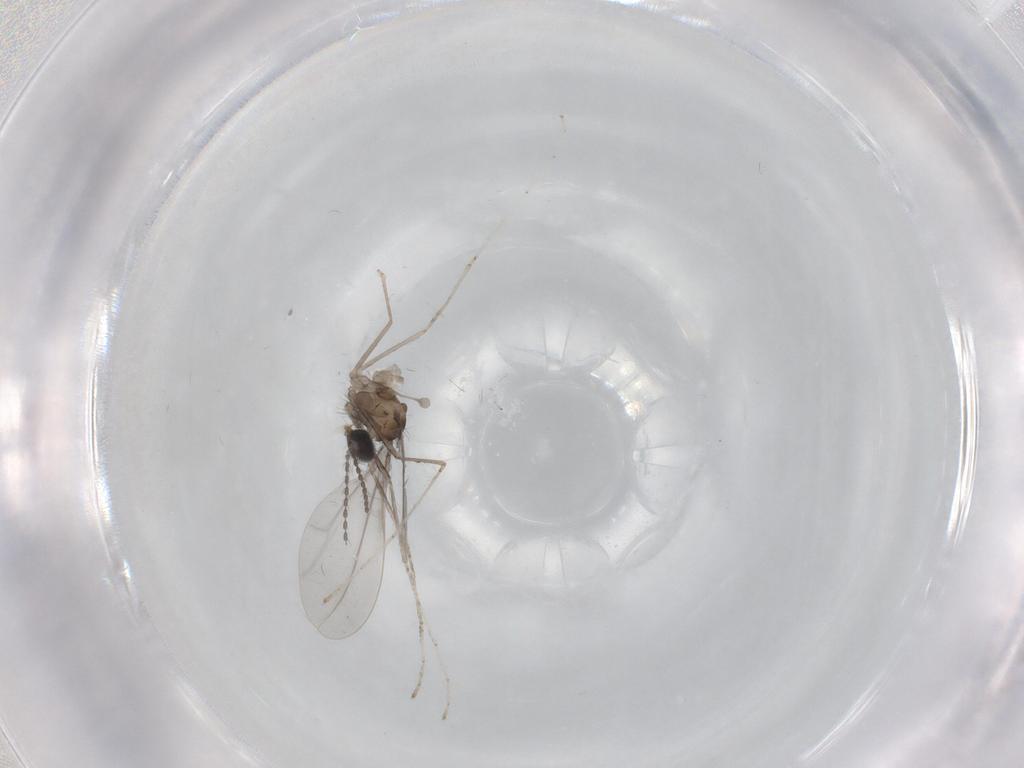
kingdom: Animalia
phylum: Arthropoda
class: Insecta
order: Diptera
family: Cecidomyiidae
